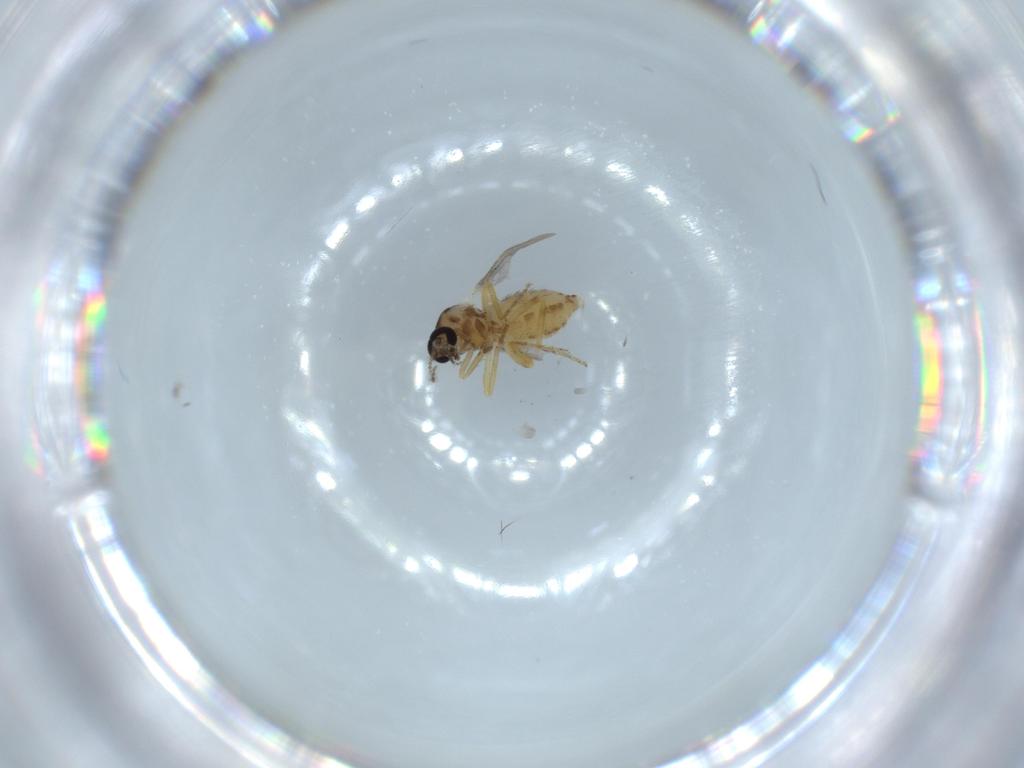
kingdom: Animalia
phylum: Arthropoda
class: Insecta
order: Diptera
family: Ceratopogonidae
